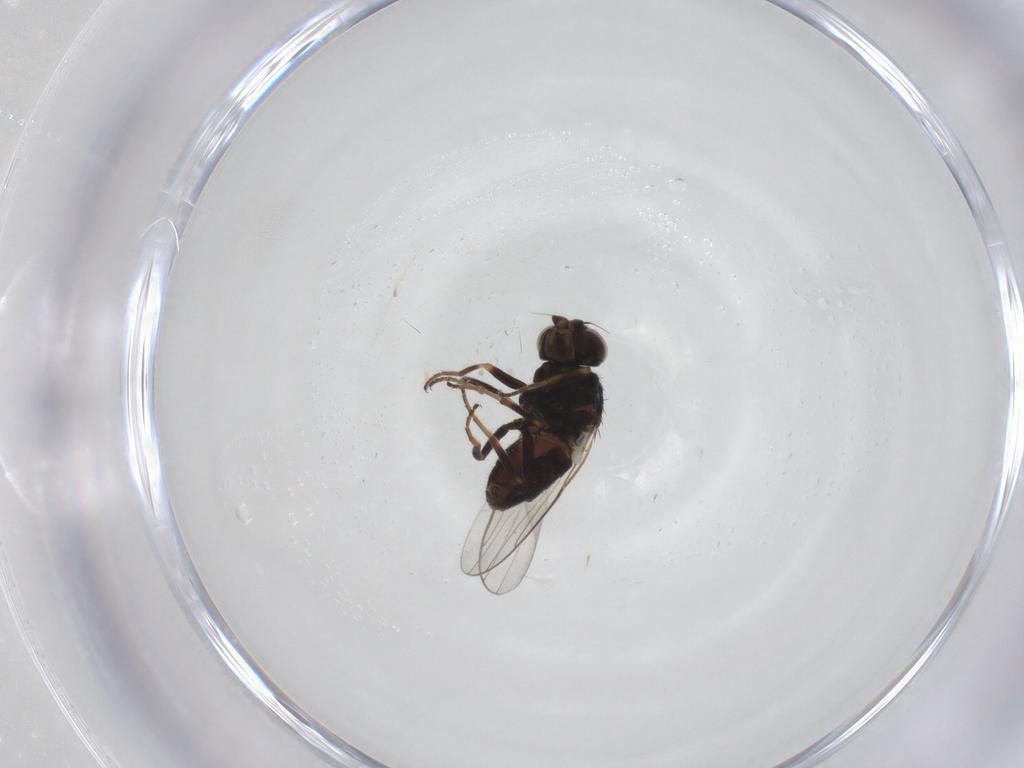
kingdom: Animalia
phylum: Arthropoda
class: Insecta
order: Diptera
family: Chloropidae
